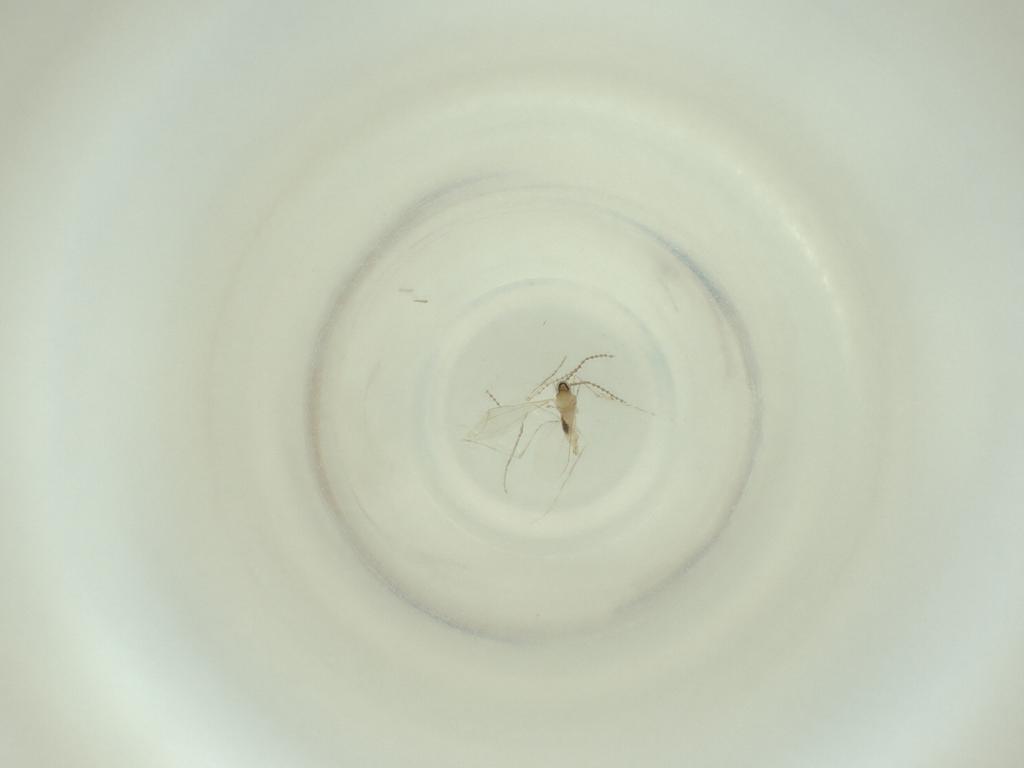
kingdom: Animalia
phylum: Arthropoda
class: Insecta
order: Diptera
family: Cecidomyiidae
